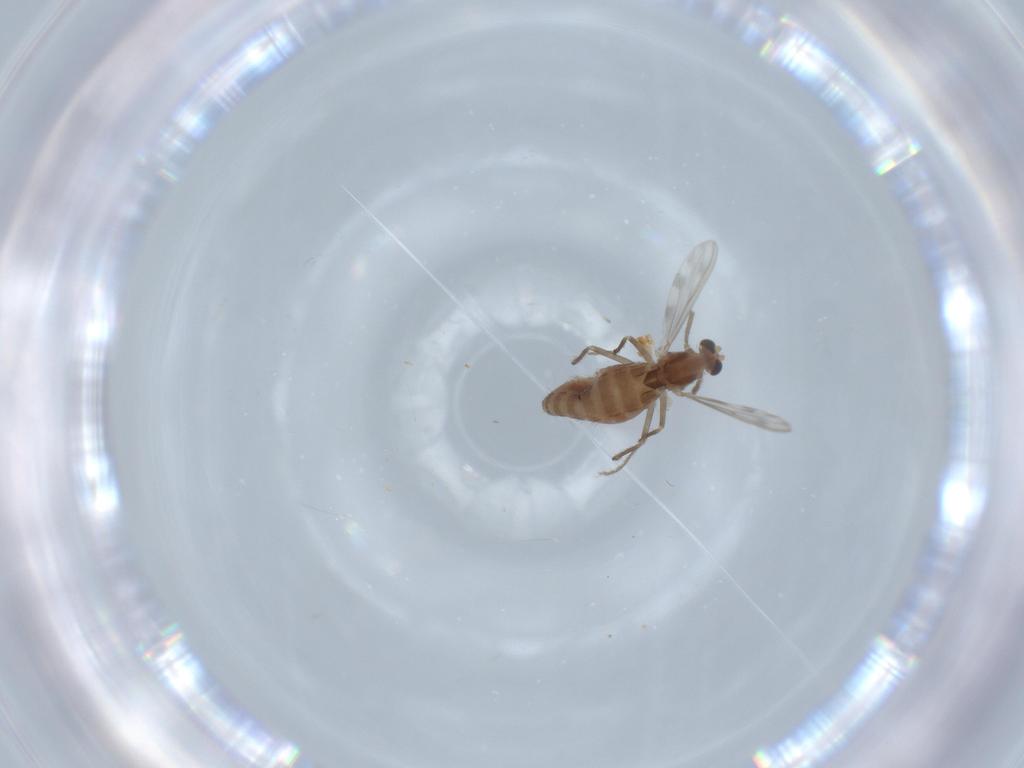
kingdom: Animalia
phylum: Arthropoda
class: Insecta
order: Diptera
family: Chironomidae
